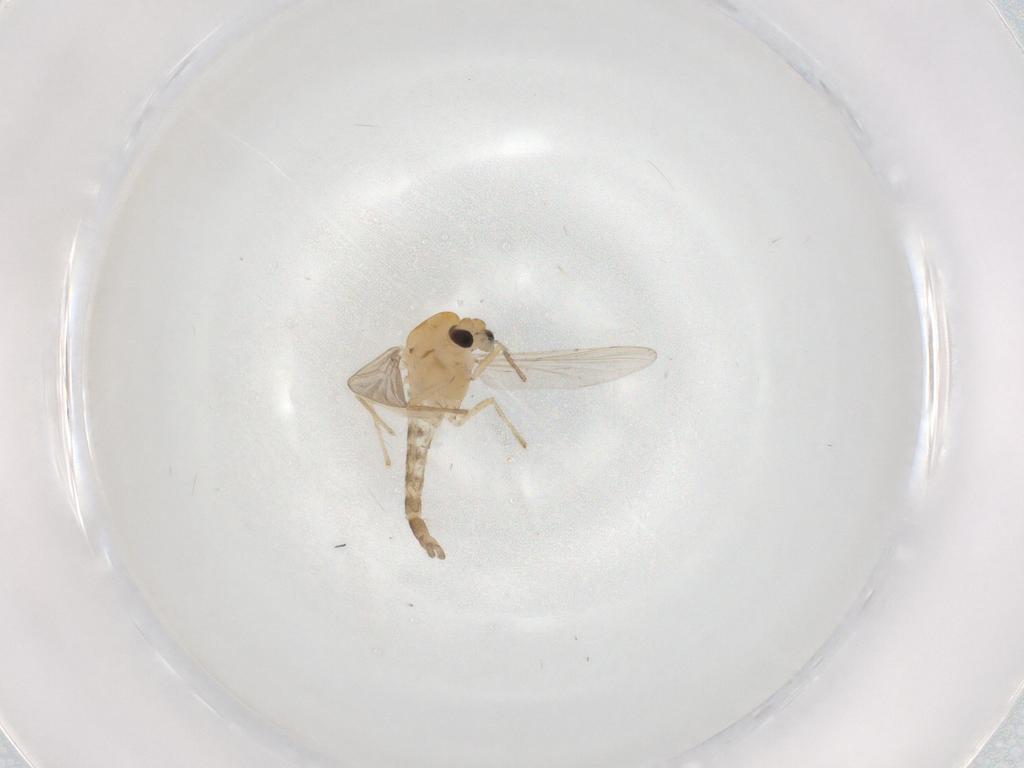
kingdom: Animalia
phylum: Arthropoda
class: Insecta
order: Diptera
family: Chironomidae
